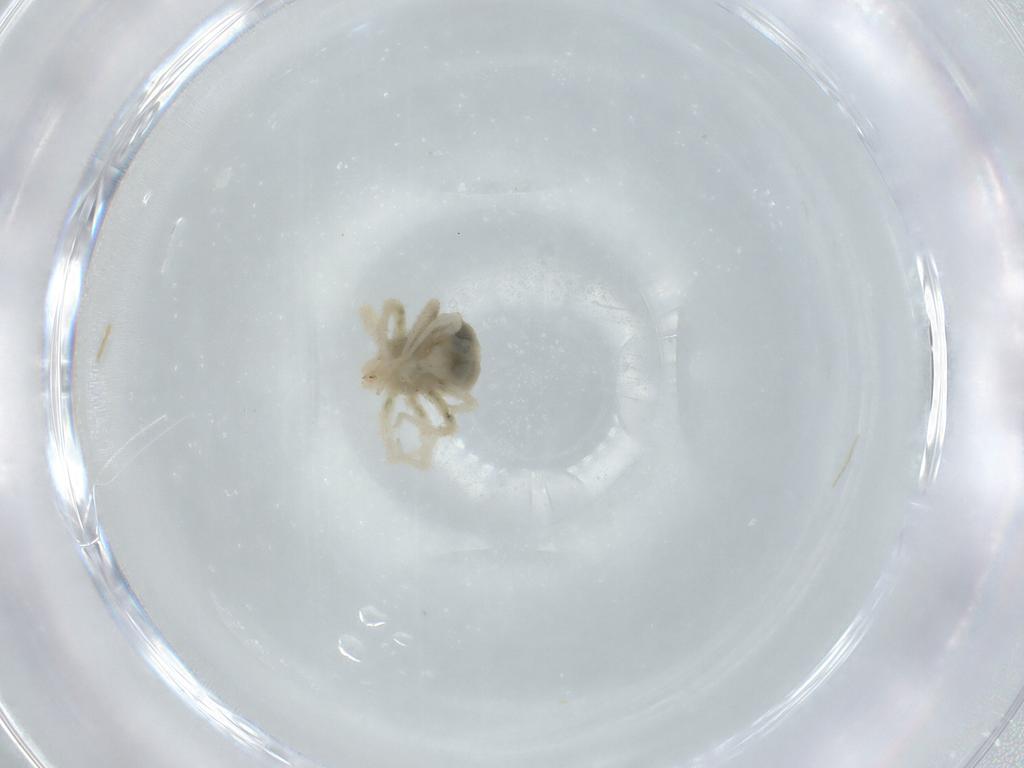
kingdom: Animalia
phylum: Arthropoda
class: Arachnida
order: Trombidiformes
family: Anystidae
